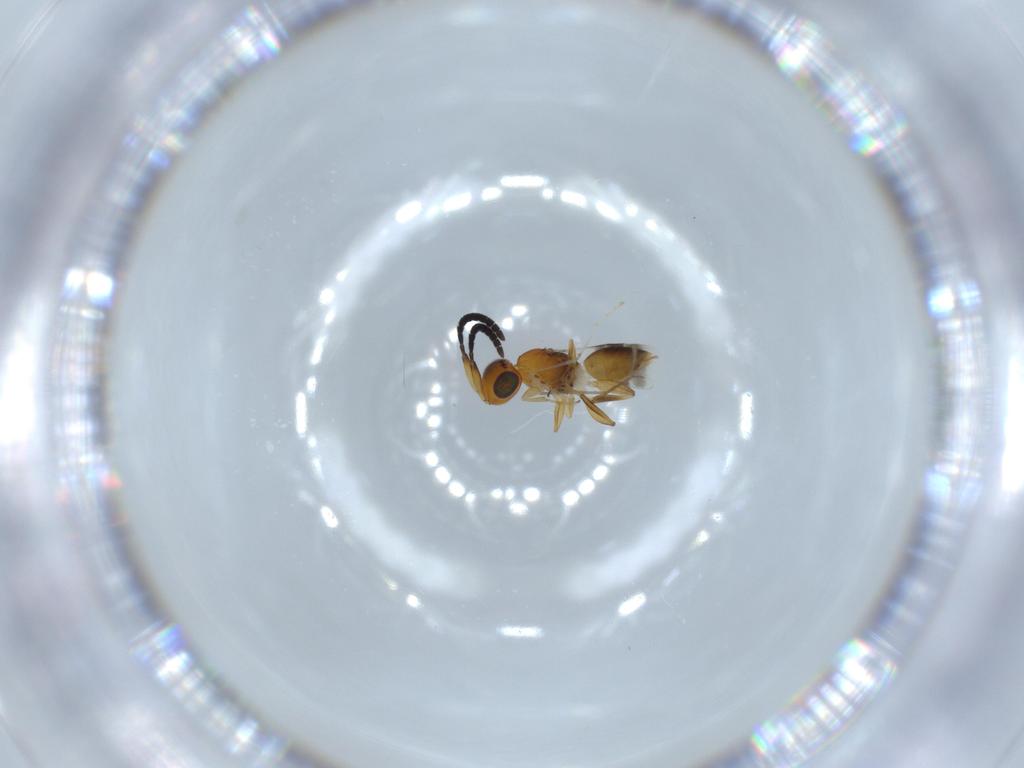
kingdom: Animalia
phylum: Arthropoda
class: Insecta
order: Hymenoptera
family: Megaspilidae
